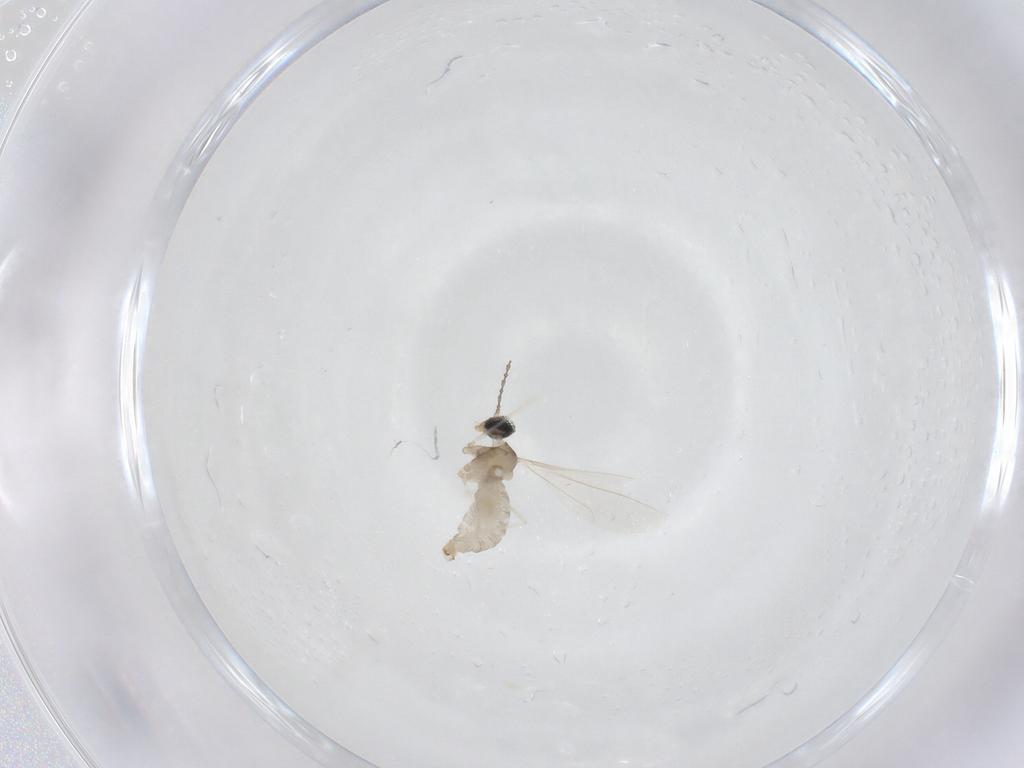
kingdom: Animalia
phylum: Arthropoda
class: Insecta
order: Diptera
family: Cecidomyiidae
